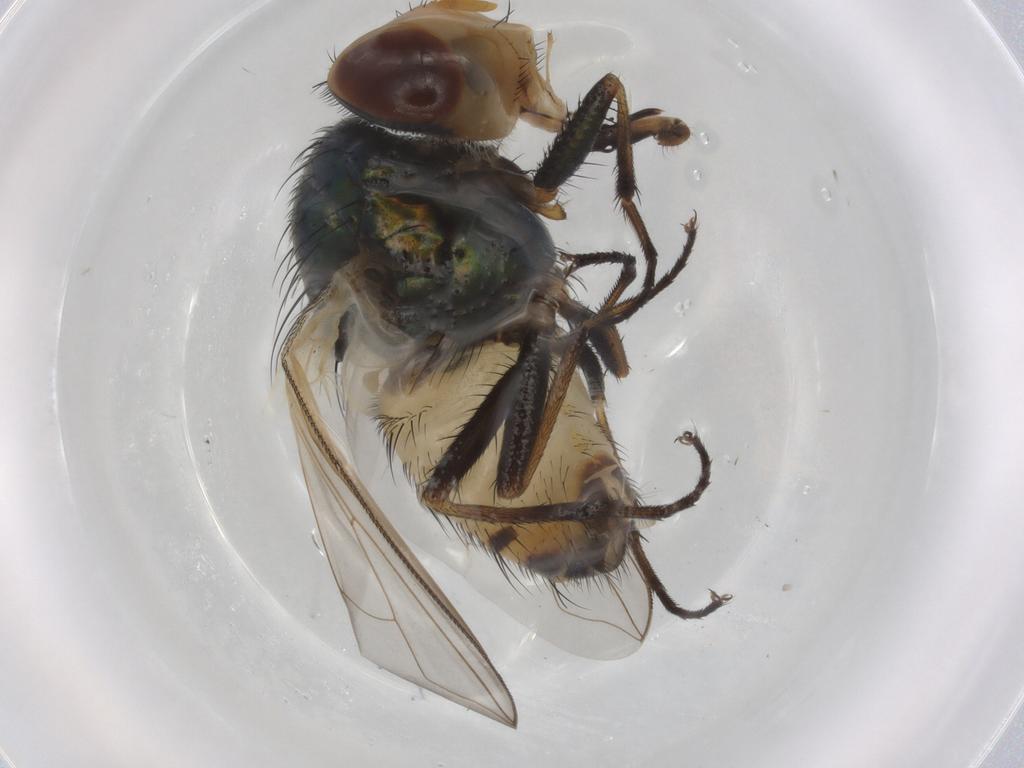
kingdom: Animalia
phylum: Arthropoda
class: Insecta
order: Diptera
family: Calliphoridae
